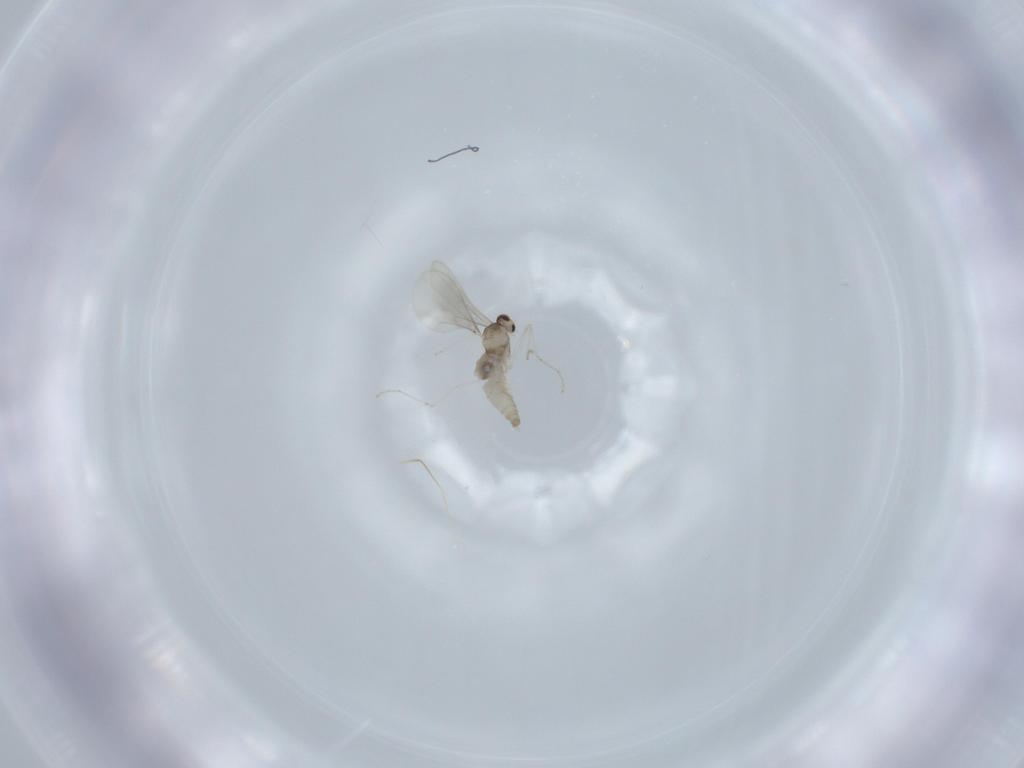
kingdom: Animalia
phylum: Arthropoda
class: Insecta
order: Diptera
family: Cecidomyiidae
